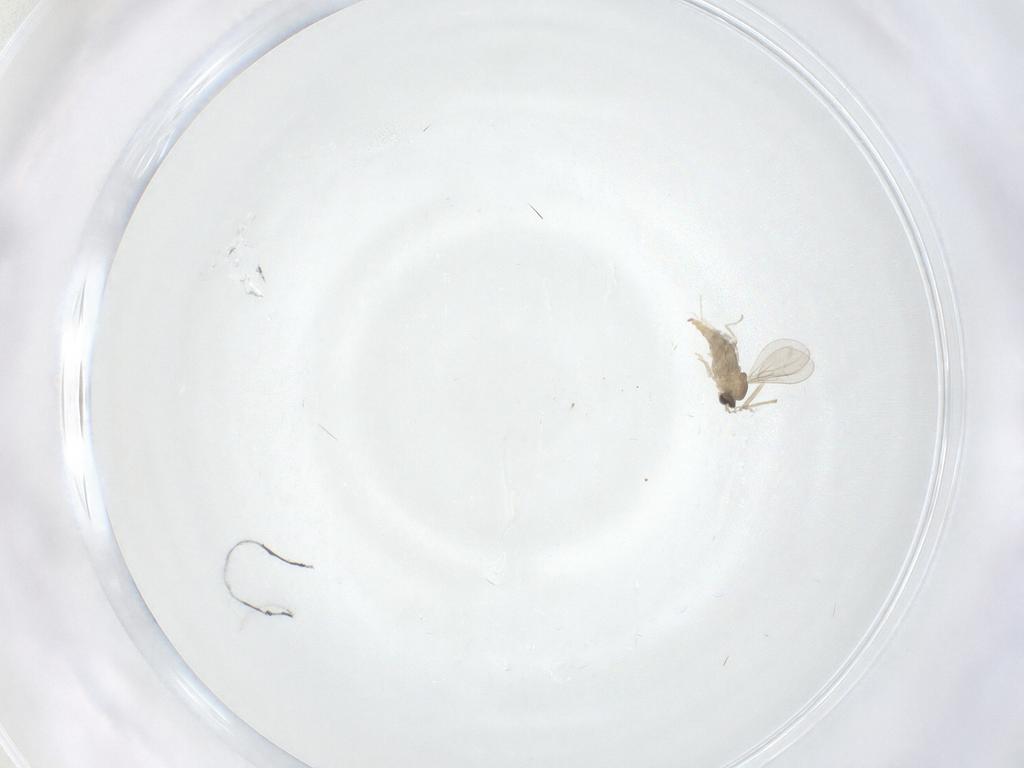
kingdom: Animalia
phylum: Arthropoda
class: Insecta
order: Diptera
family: Cecidomyiidae
